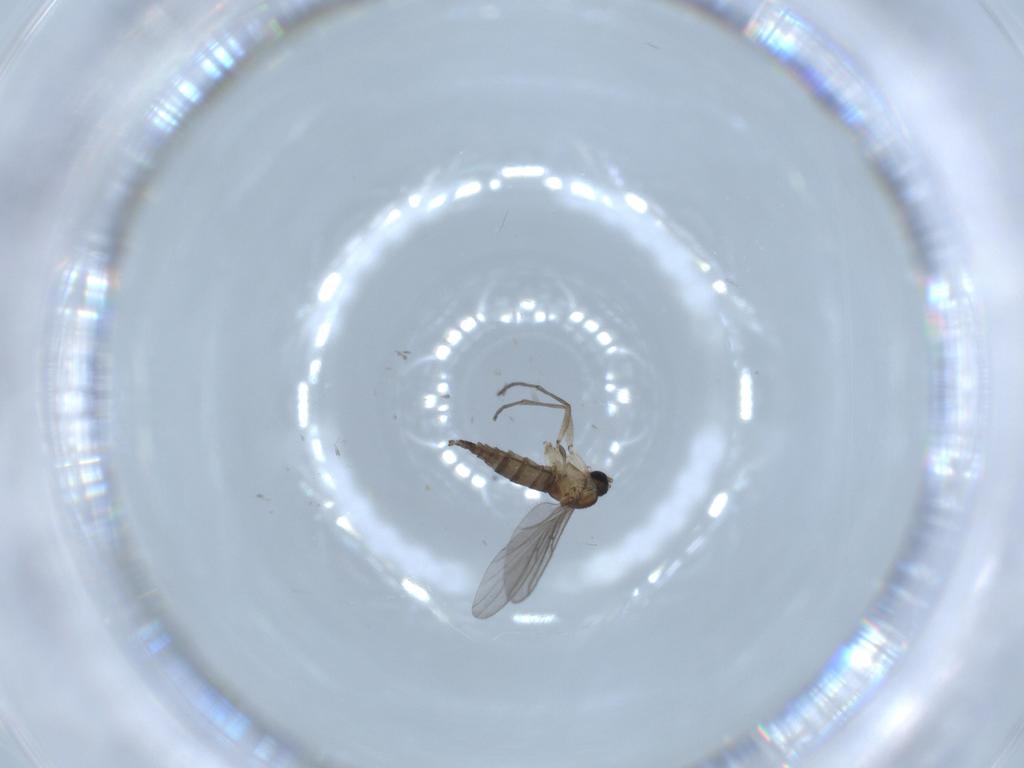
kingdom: Animalia
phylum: Arthropoda
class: Insecta
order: Diptera
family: Sciaridae
